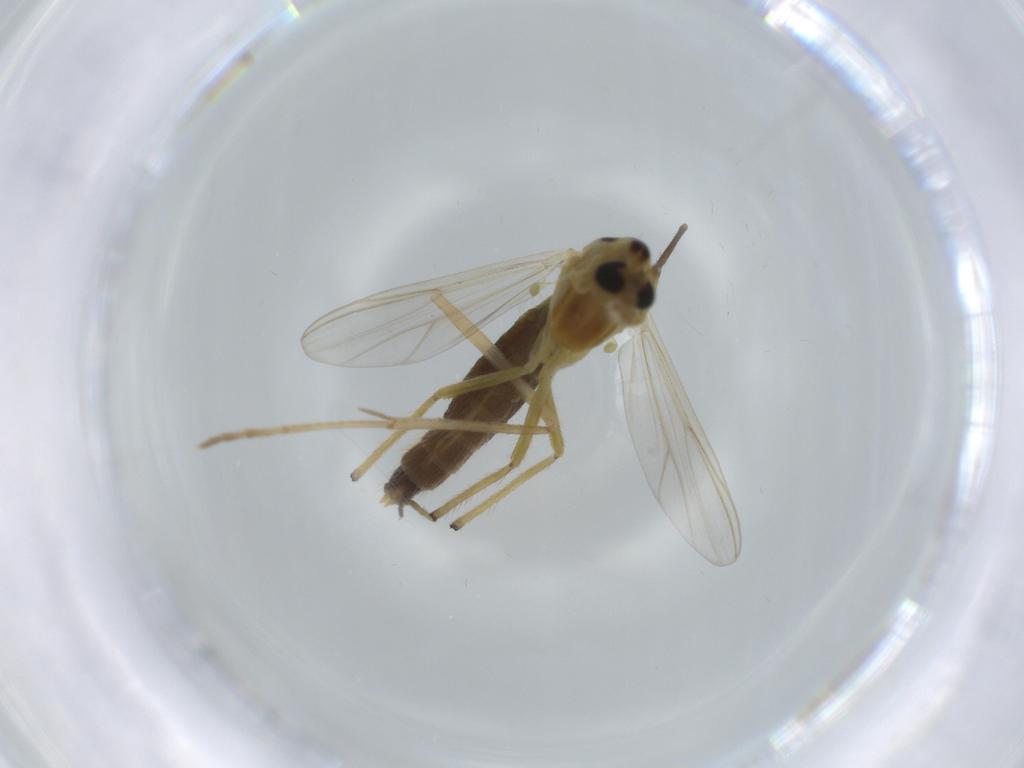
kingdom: Animalia
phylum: Arthropoda
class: Insecta
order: Diptera
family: Chironomidae
